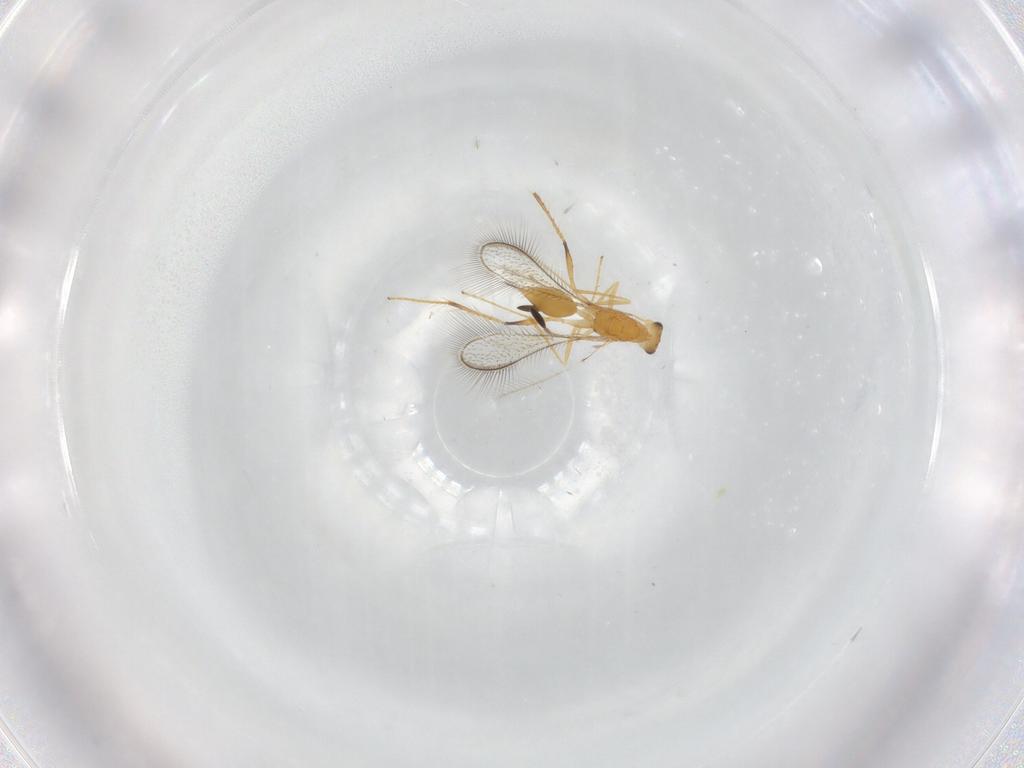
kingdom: Animalia
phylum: Arthropoda
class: Insecta
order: Hymenoptera
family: Mymaridae
